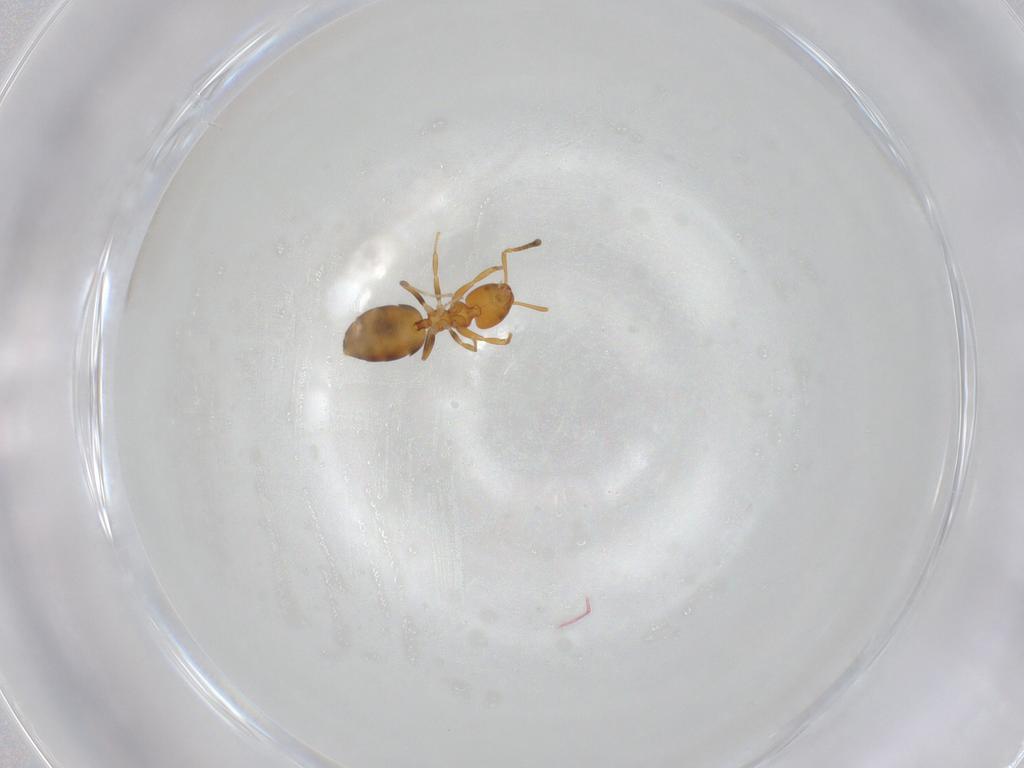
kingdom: Animalia
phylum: Arthropoda
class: Insecta
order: Hymenoptera
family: Formicidae
